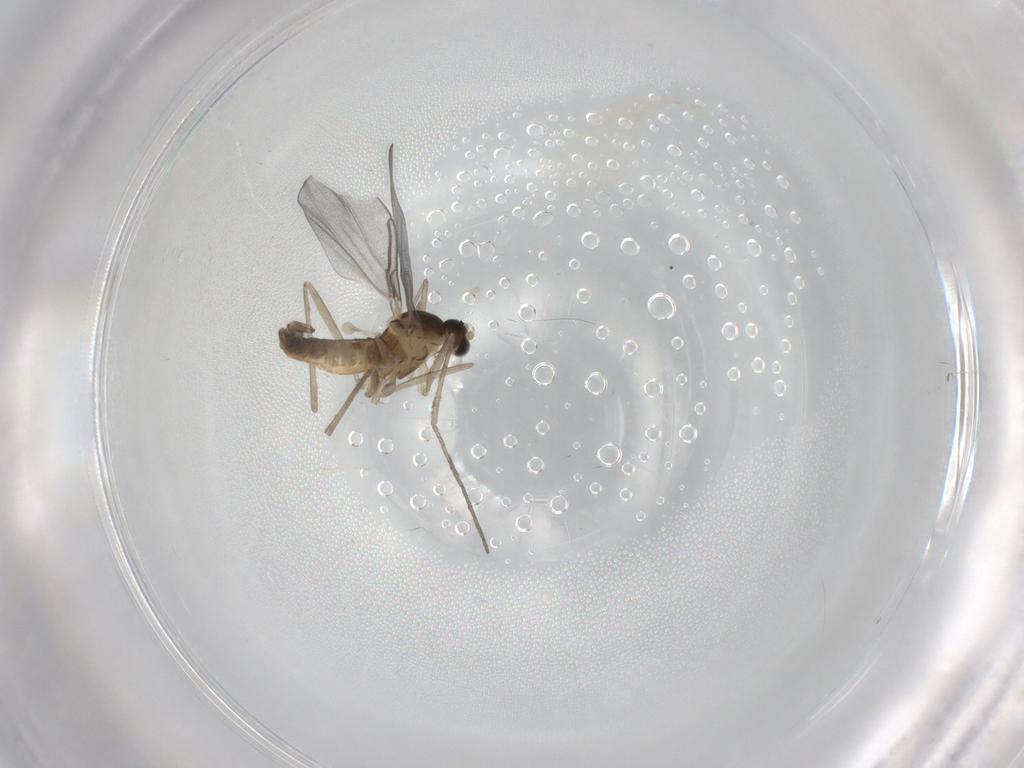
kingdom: Animalia
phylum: Arthropoda
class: Insecta
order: Diptera
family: Cecidomyiidae
